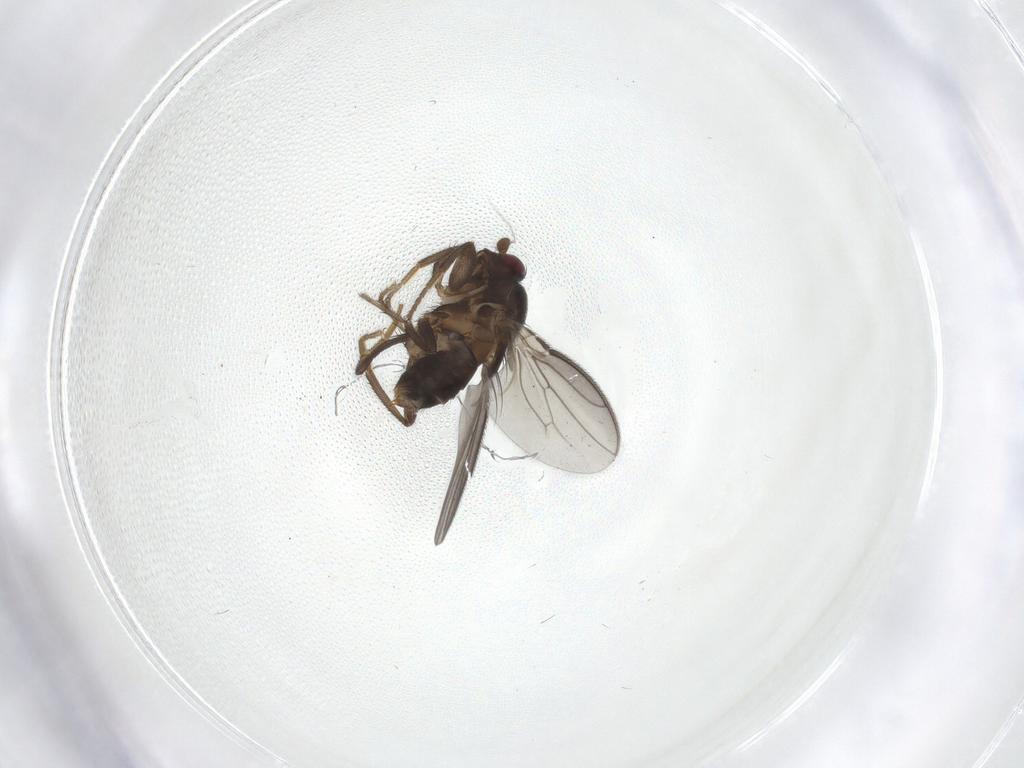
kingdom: Animalia
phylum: Arthropoda
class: Insecta
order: Diptera
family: Sphaeroceridae
